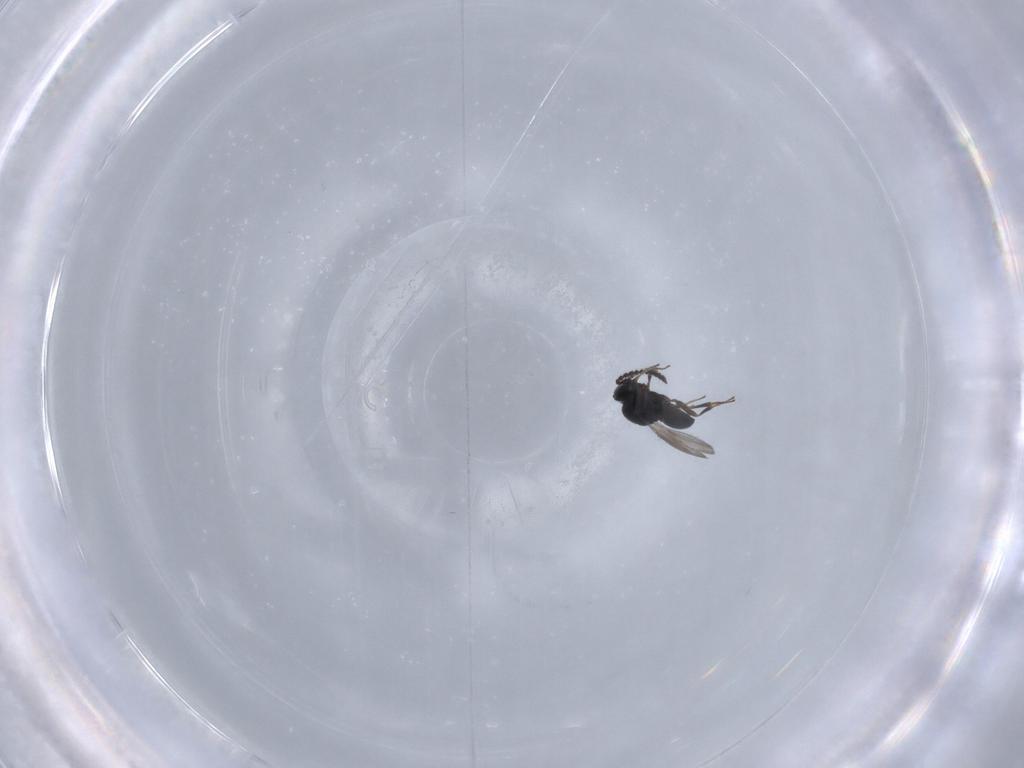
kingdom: Animalia
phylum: Arthropoda
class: Insecta
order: Hymenoptera
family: Scelionidae
